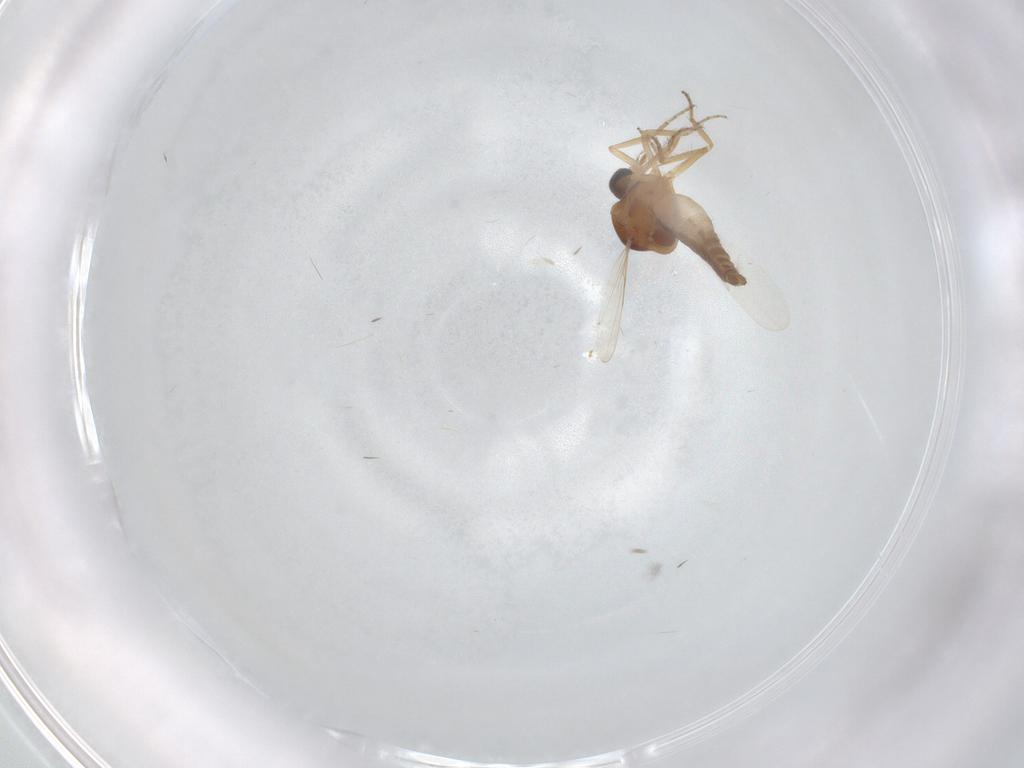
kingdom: Animalia
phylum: Arthropoda
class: Insecta
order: Diptera
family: Ceratopogonidae
